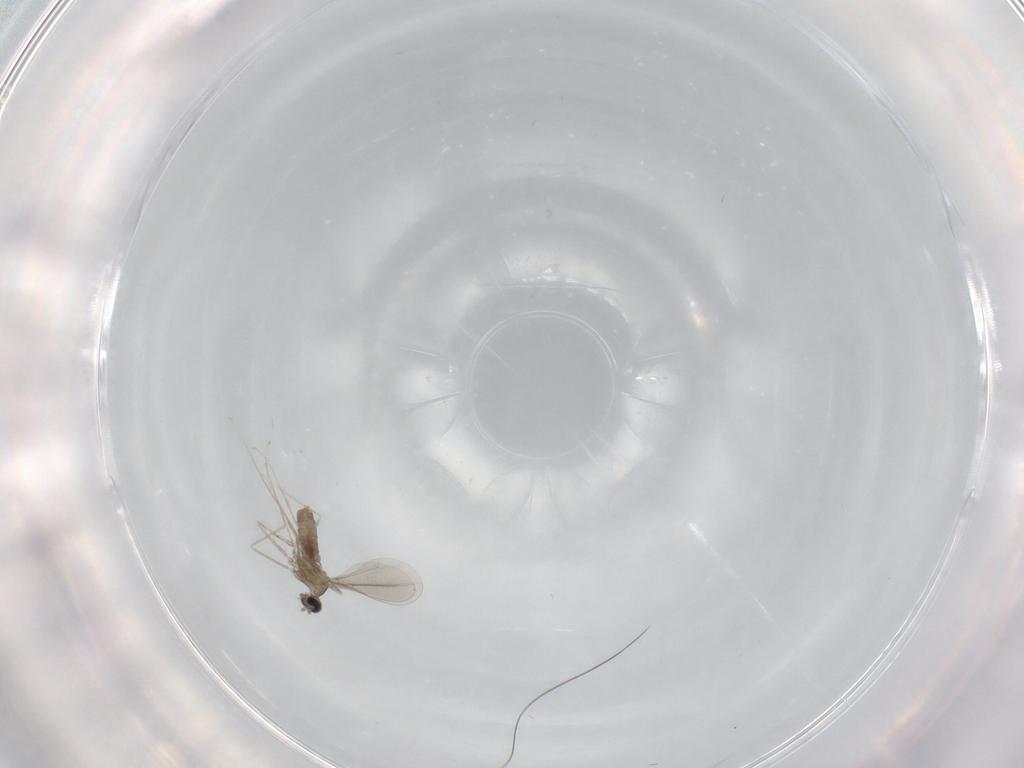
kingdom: Animalia
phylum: Arthropoda
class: Insecta
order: Diptera
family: Cecidomyiidae
